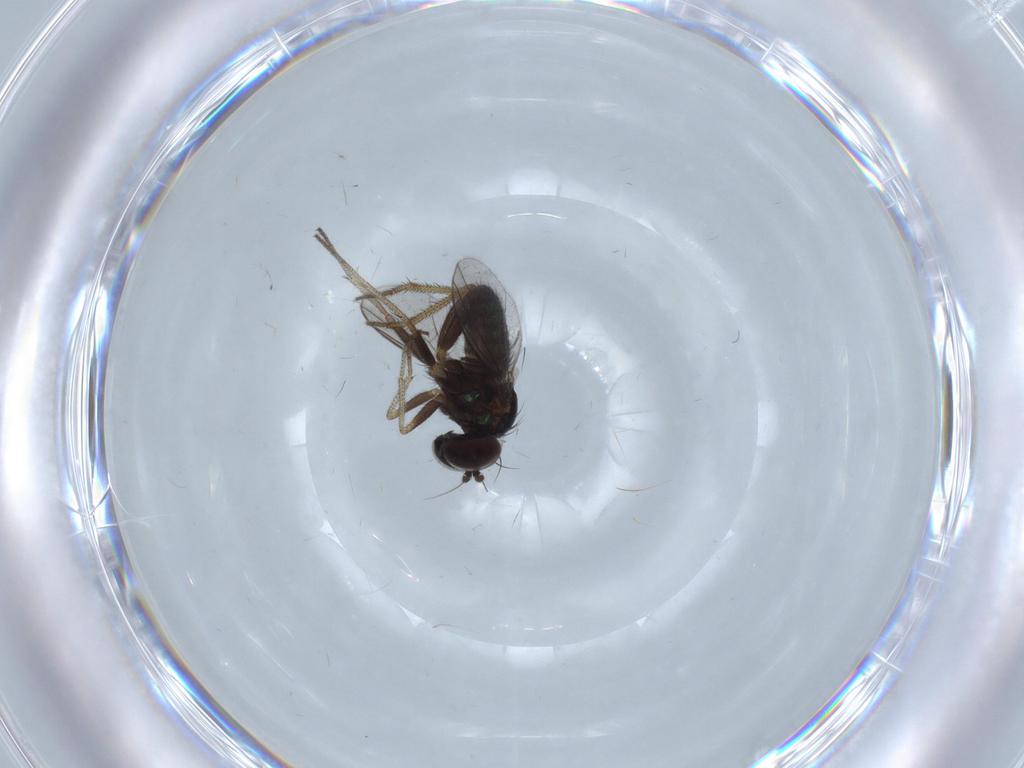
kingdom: Animalia
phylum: Arthropoda
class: Insecta
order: Diptera
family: Dolichopodidae
